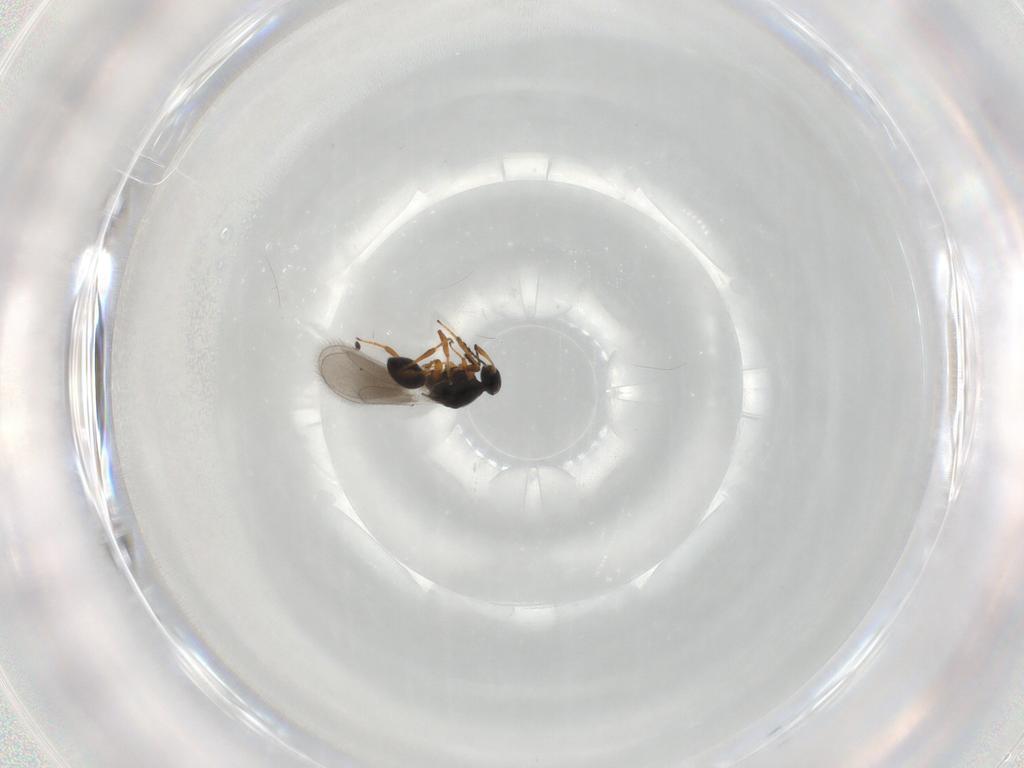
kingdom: Animalia
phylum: Arthropoda
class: Insecta
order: Hymenoptera
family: Platygastridae
